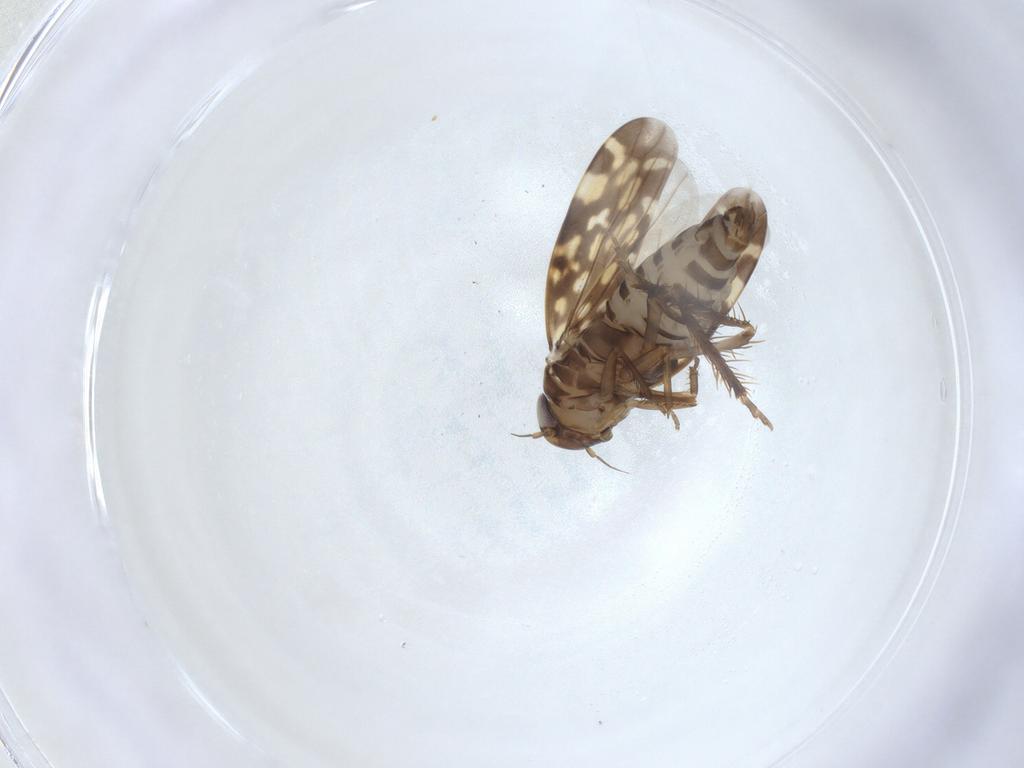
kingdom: Animalia
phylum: Arthropoda
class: Insecta
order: Hemiptera
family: Cicadellidae
